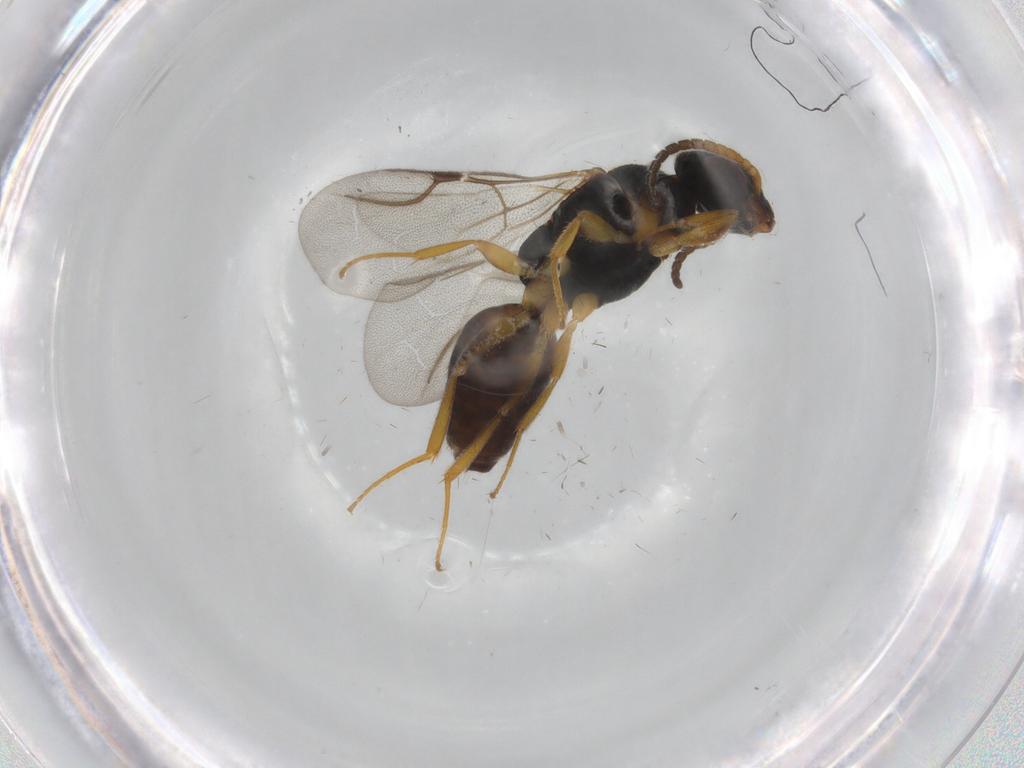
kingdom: Animalia
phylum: Arthropoda
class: Insecta
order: Hymenoptera
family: Bethylidae
